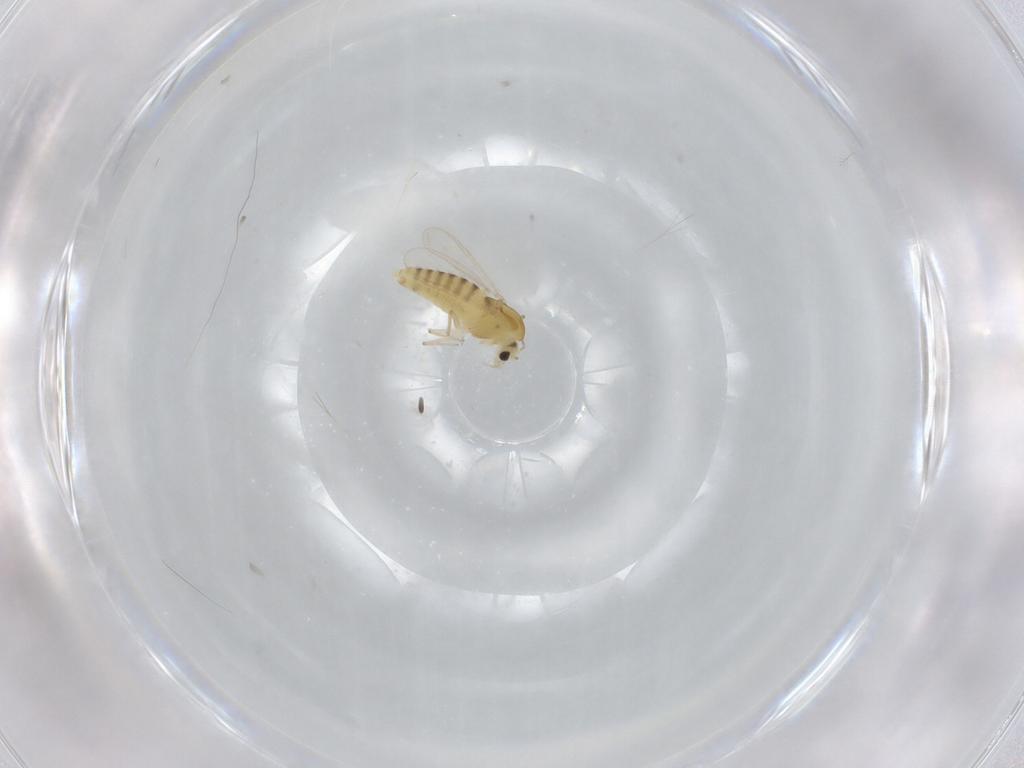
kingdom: Animalia
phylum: Arthropoda
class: Insecta
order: Diptera
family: Chironomidae
